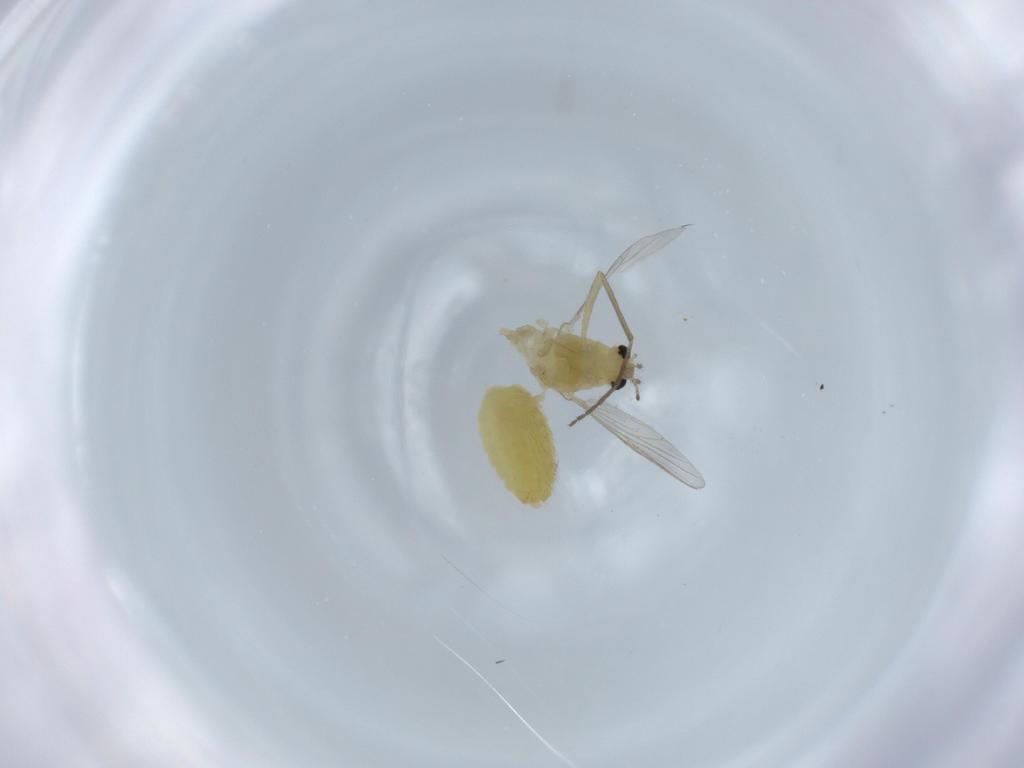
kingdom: Animalia
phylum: Arthropoda
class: Insecta
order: Diptera
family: Chironomidae
